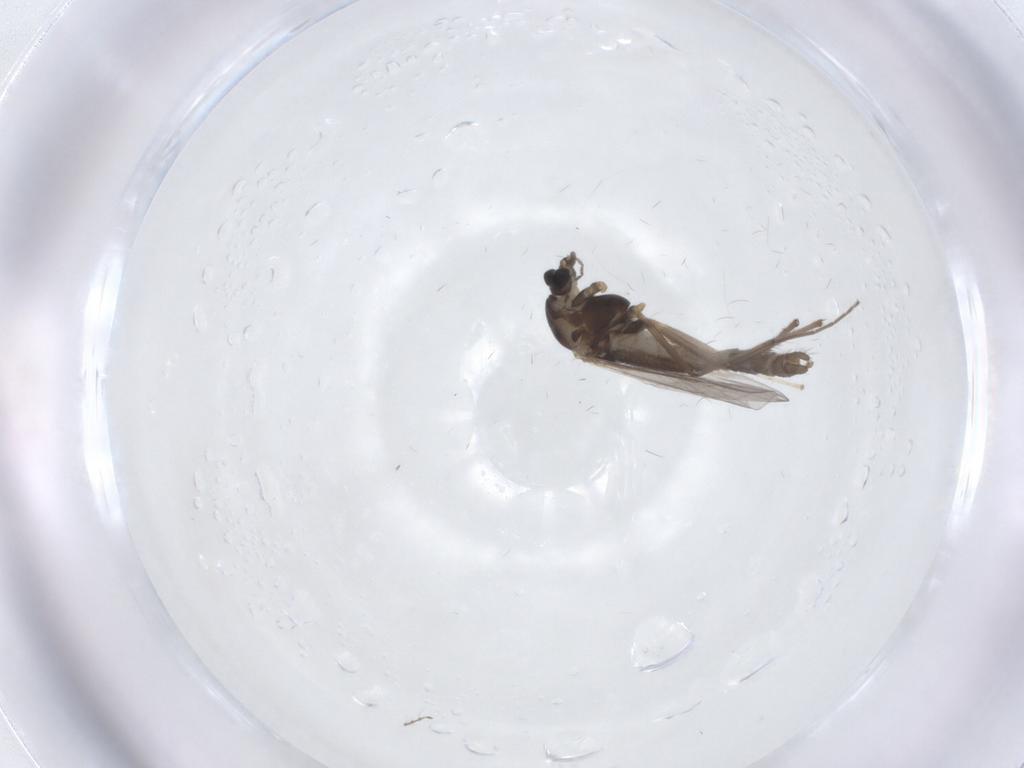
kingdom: Animalia
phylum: Arthropoda
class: Insecta
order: Diptera
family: Chironomidae
